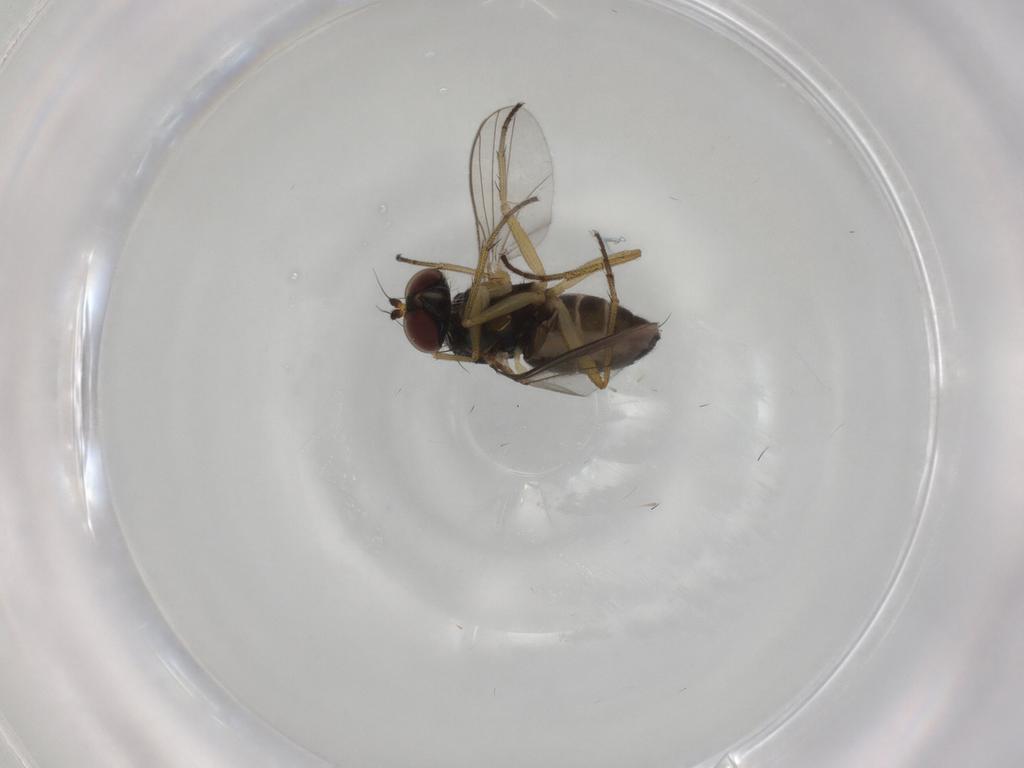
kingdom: Animalia
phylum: Arthropoda
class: Insecta
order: Diptera
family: Dolichopodidae
